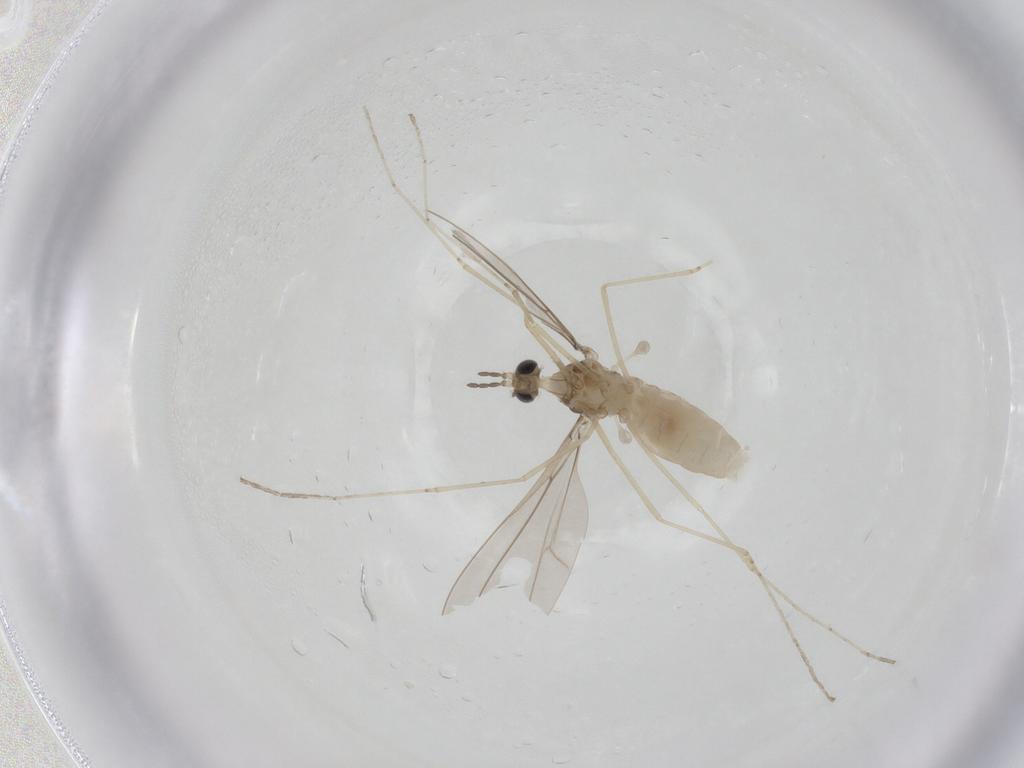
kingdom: Animalia
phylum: Arthropoda
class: Insecta
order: Diptera
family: Cecidomyiidae
